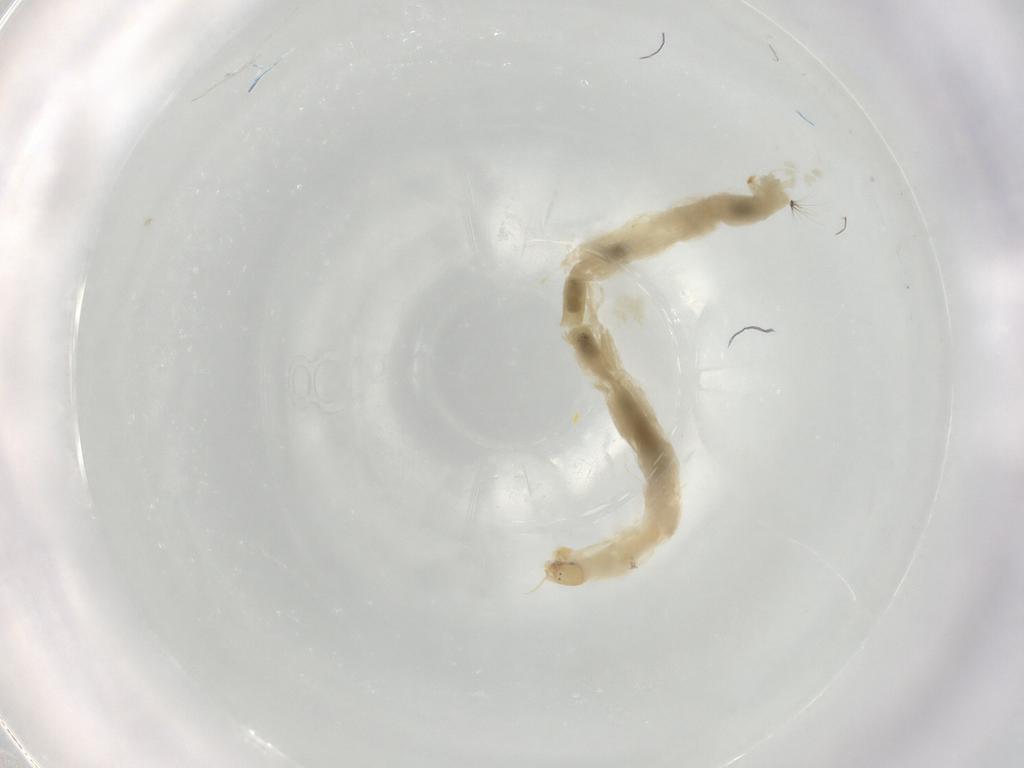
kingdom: Animalia
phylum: Arthropoda
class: Insecta
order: Diptera
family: Chironomidae
